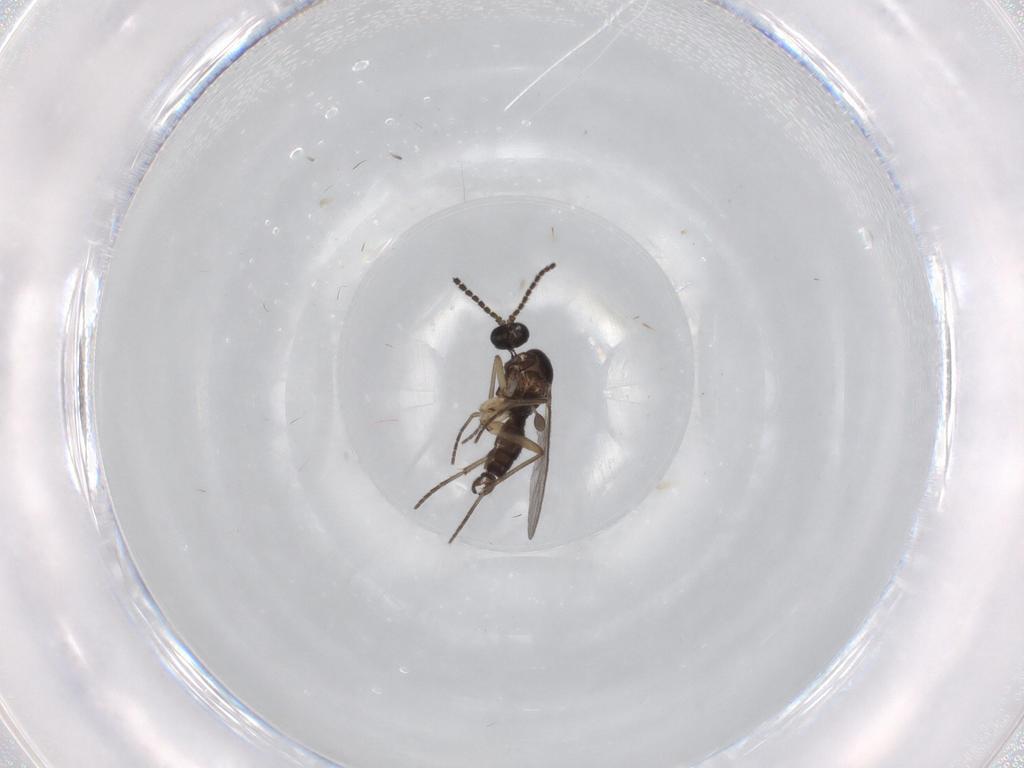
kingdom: Animalia
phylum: Arthropoda
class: Insecta
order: Diptera
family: Sciaridae
